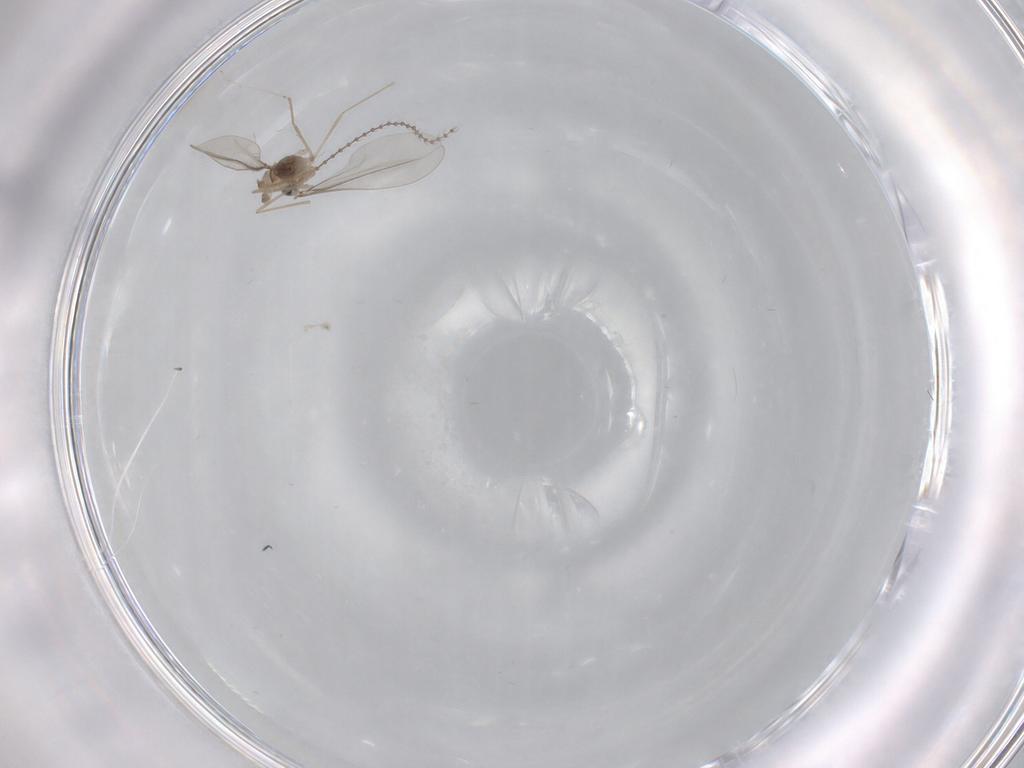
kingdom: Animalia
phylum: Arthropoda
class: Insecta
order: Diptera
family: Cecidomyiidae
